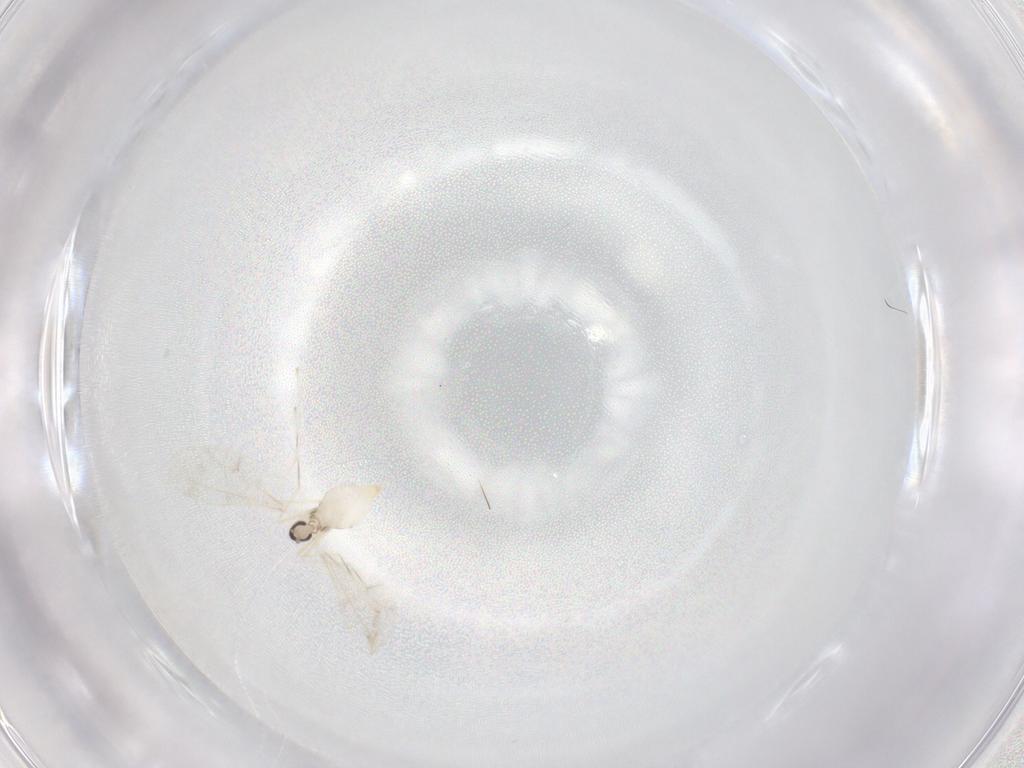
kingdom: Animalia
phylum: Arthropoda
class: Insecta
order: Diptera
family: Cecidomyiidae
